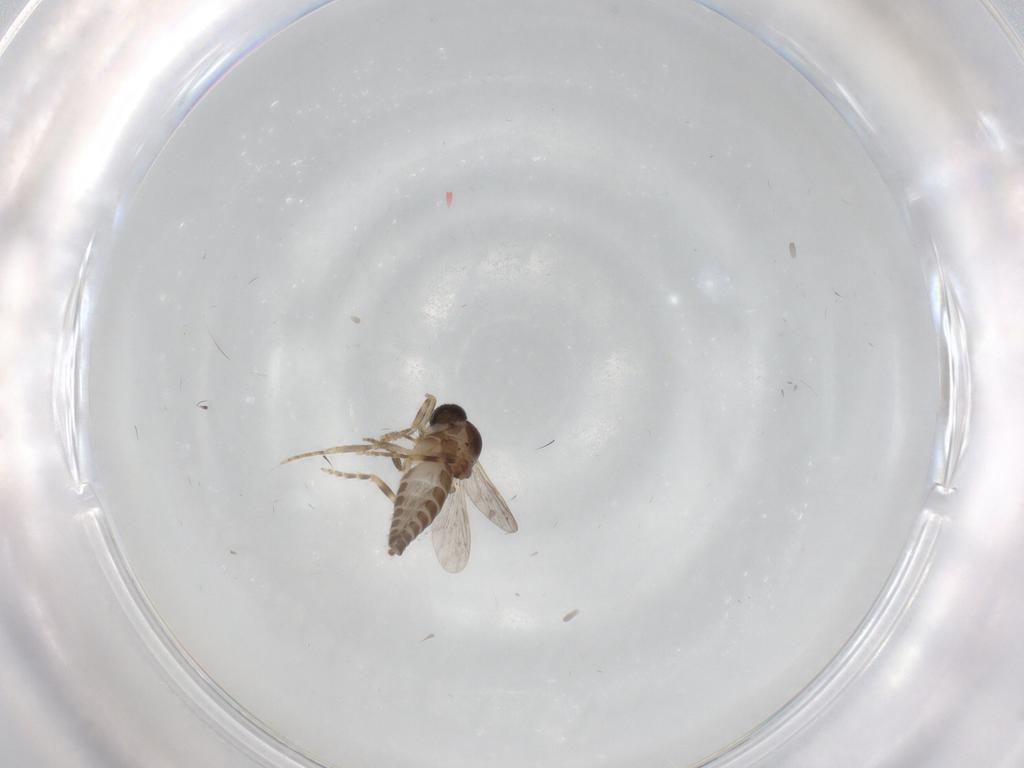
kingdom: Animalia
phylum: Arthropoda
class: Insecta
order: Diptera
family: Ceratopogonidae
